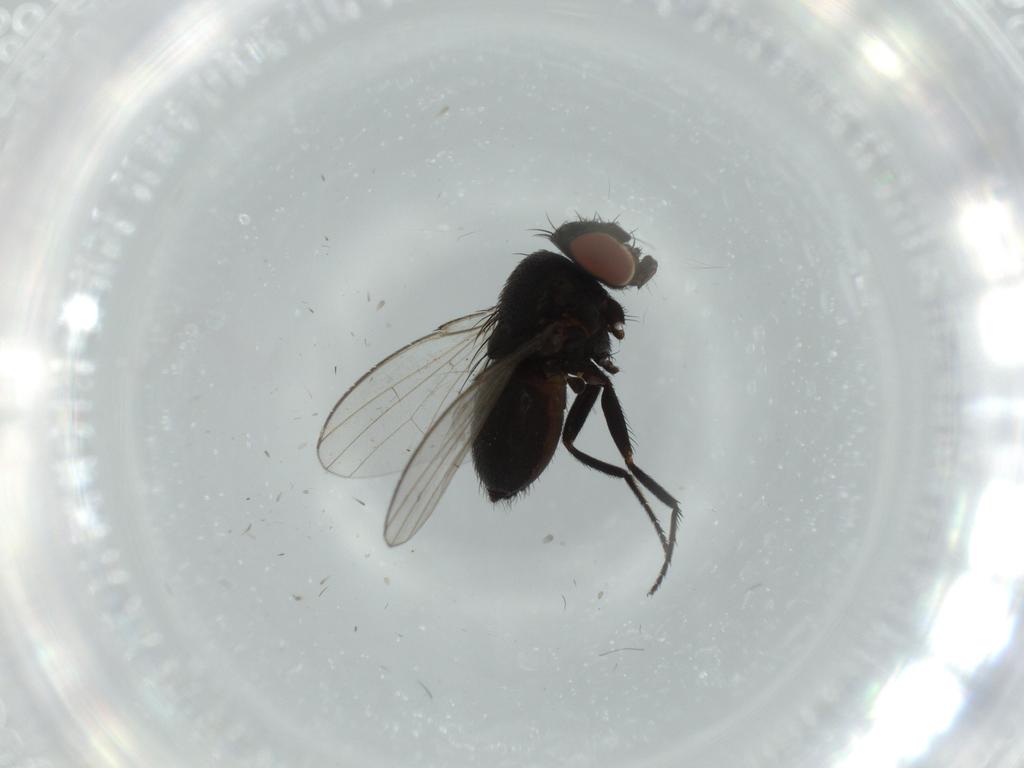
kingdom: Animalia
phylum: Arthropoda
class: Insecta
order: Diptera
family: Milichiidae
